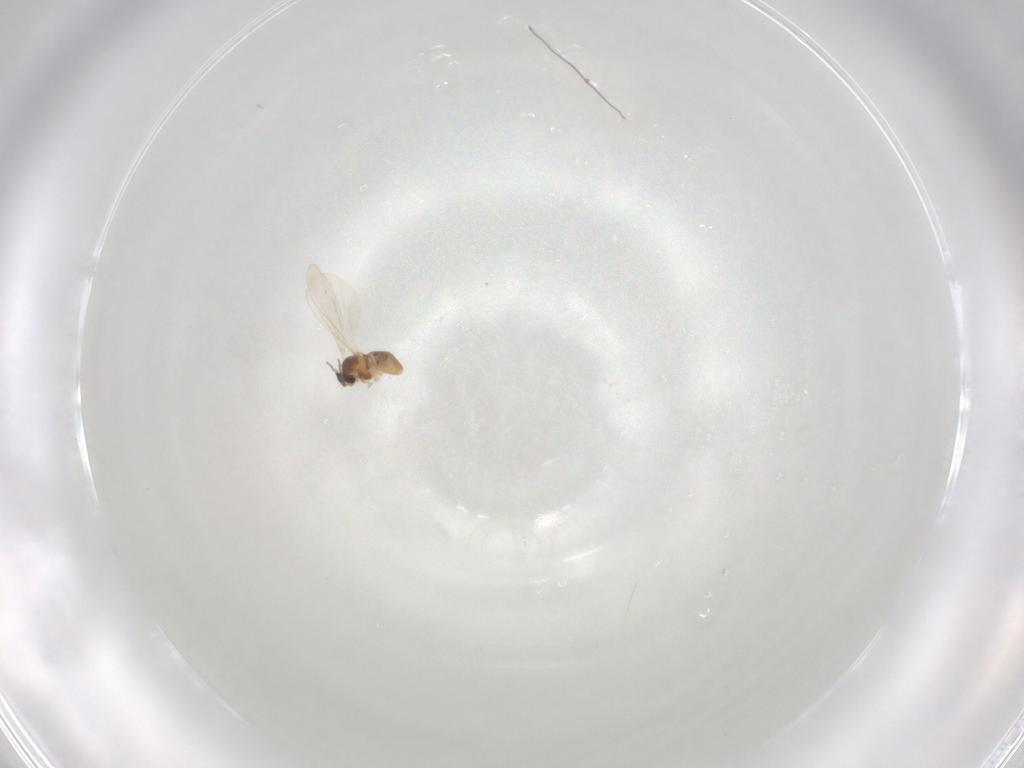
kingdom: Animalia
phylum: Arthropoda
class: Insecta
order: Diptera
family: Cecidomyiidae
